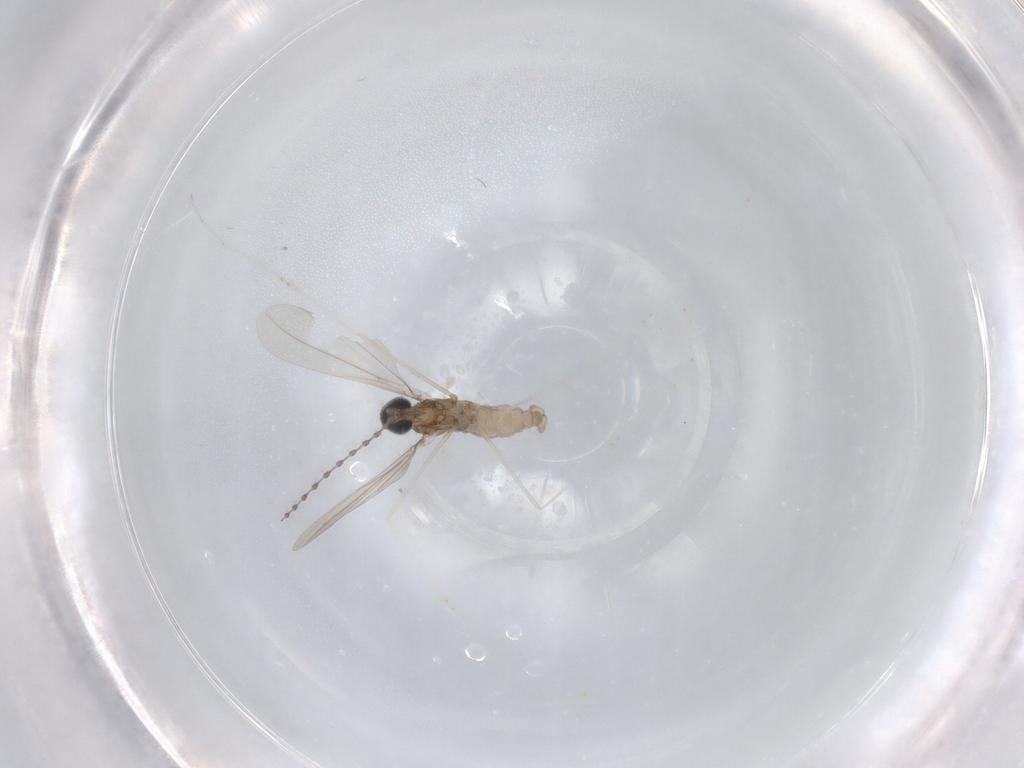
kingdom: Animalia
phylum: Arthropoda
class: Insecta
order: Diptera
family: Cecidomyiidae
